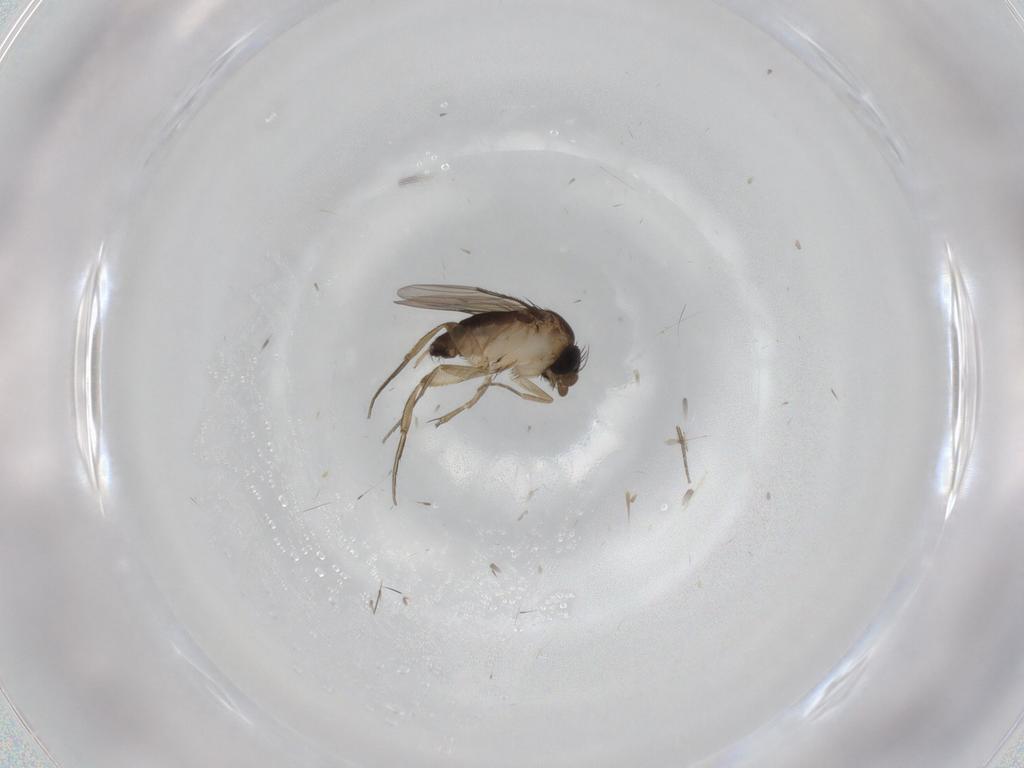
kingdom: Animalia
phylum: Arthropoda
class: Insecta
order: Diptera
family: Phoridae
